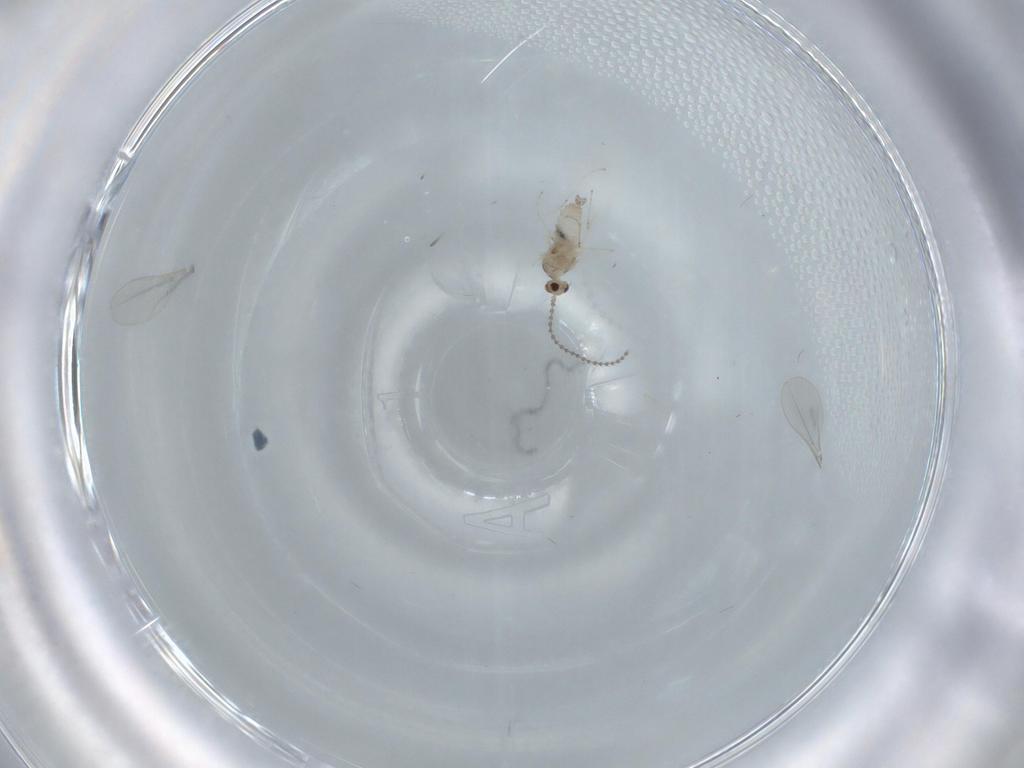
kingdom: Animalia
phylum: Arthropoda
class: Insecta
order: Diptera
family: Cecidomyiidae
